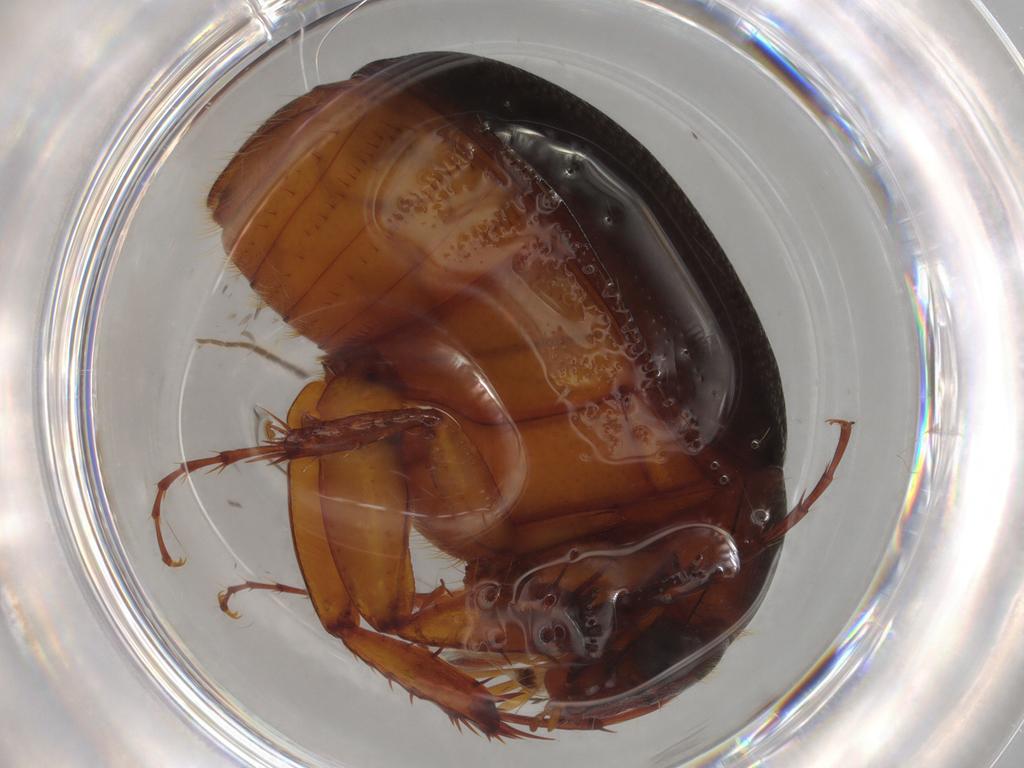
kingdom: Animalia
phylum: Arthropoda
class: Insecta
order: Coleoptera
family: Scarabaeidae
